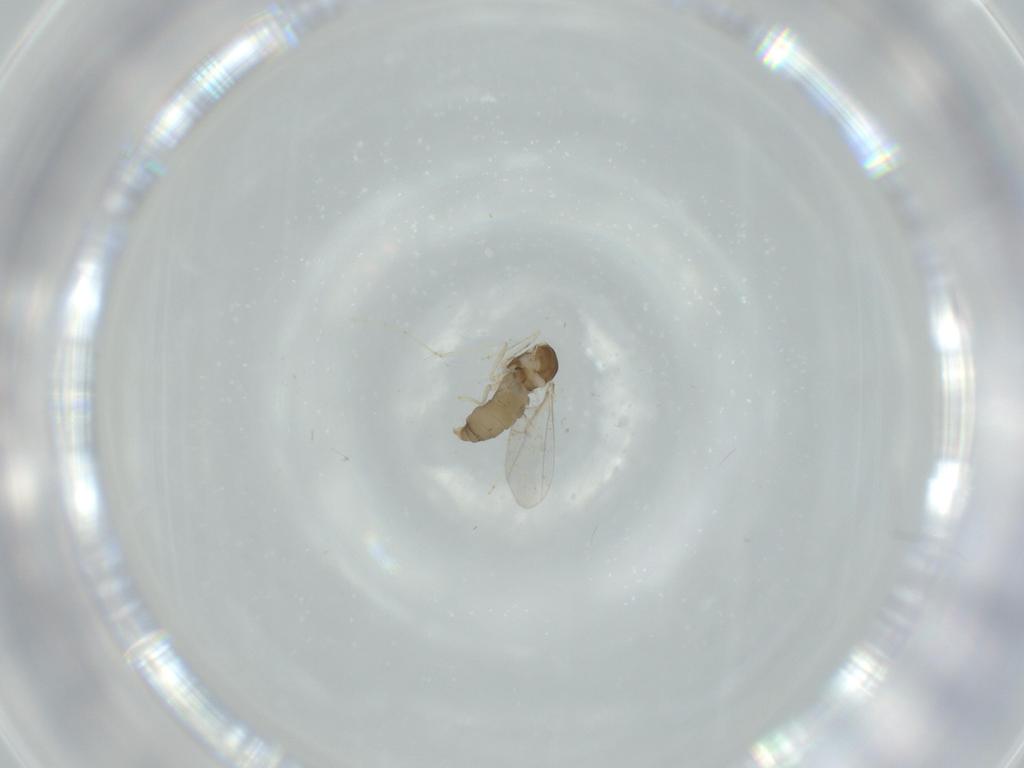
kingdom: Animalia
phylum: Arthropoda
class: Insecta
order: Diptera
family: Cecidomyiidae
